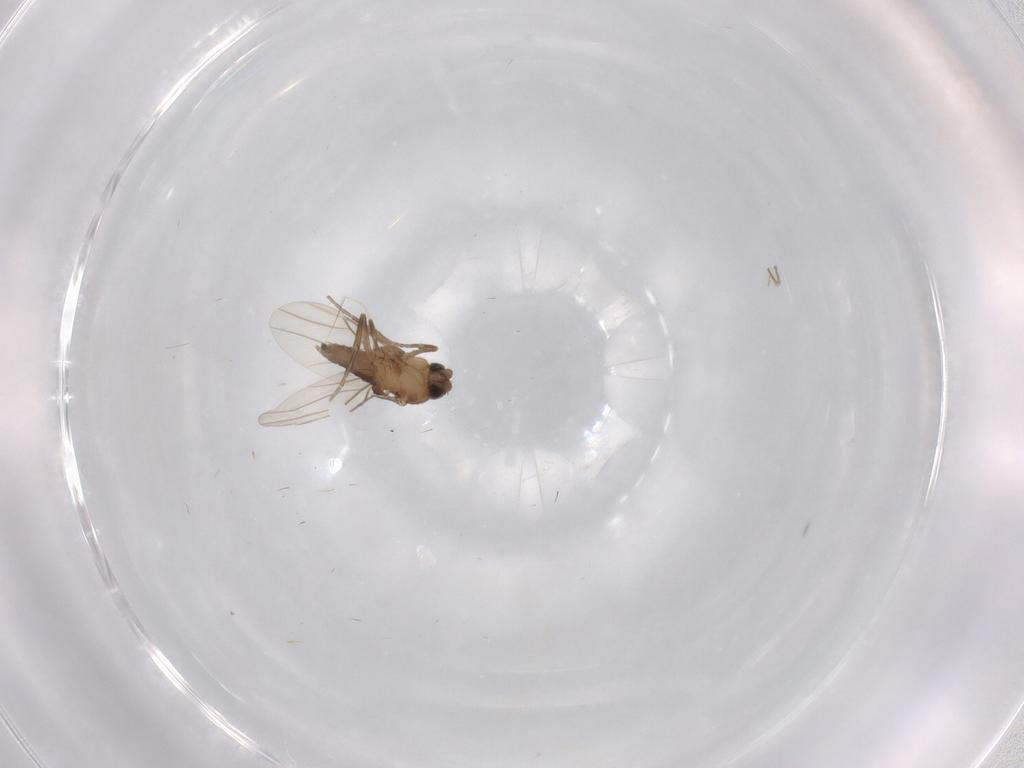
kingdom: Animalia
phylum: Arthropoda
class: Insecta
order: Diptera
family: Phoridae
